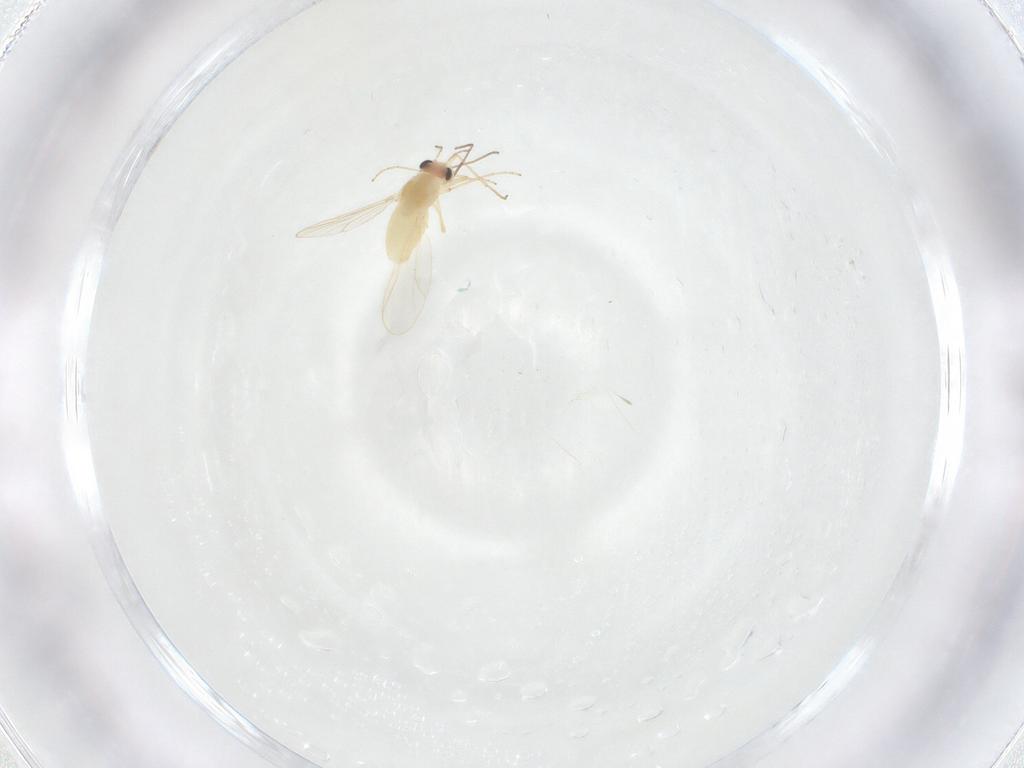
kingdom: Animalia
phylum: Arthropoda
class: Insecta
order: Diptera
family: Chironomidae
